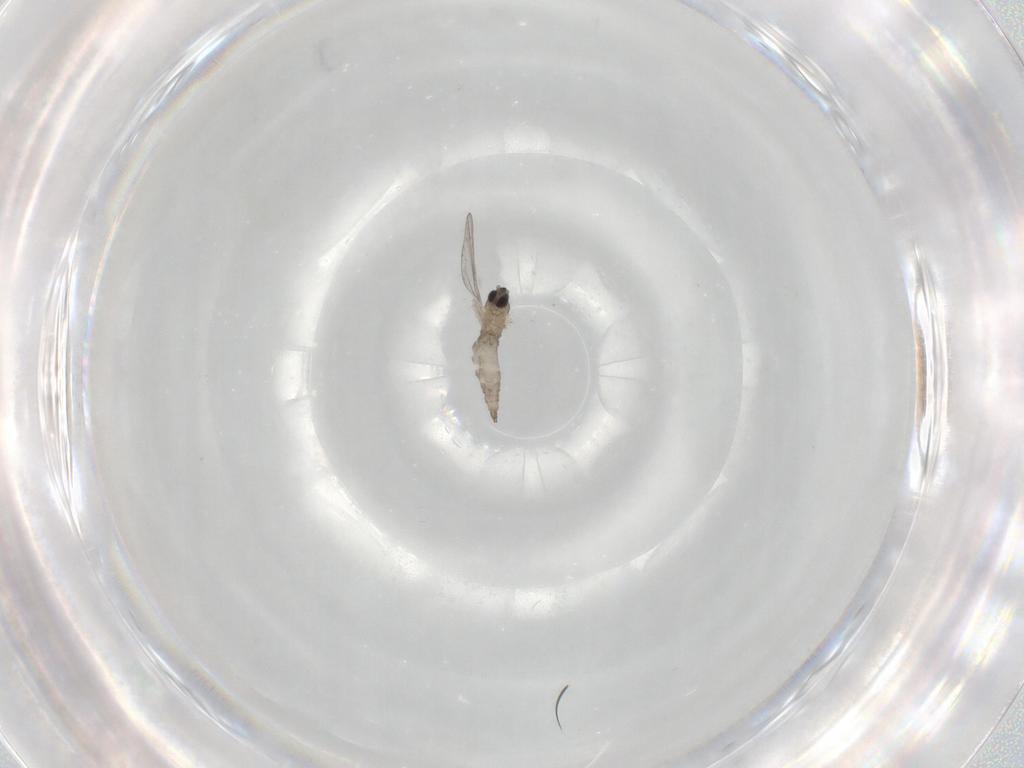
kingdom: Animalia
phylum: Arthropoda
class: Insecta
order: Diptera
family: Cecidomyiidae
